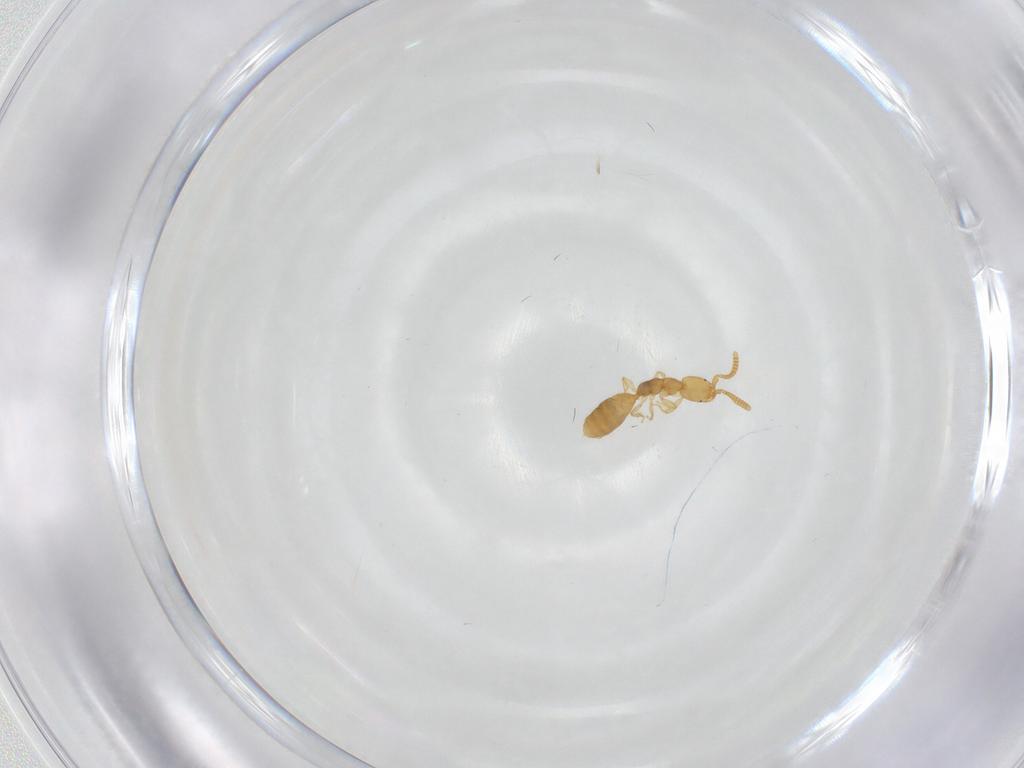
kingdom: Animalia
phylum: Arthropoda
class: Insecta
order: Hymenoptera
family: Bethylidae
